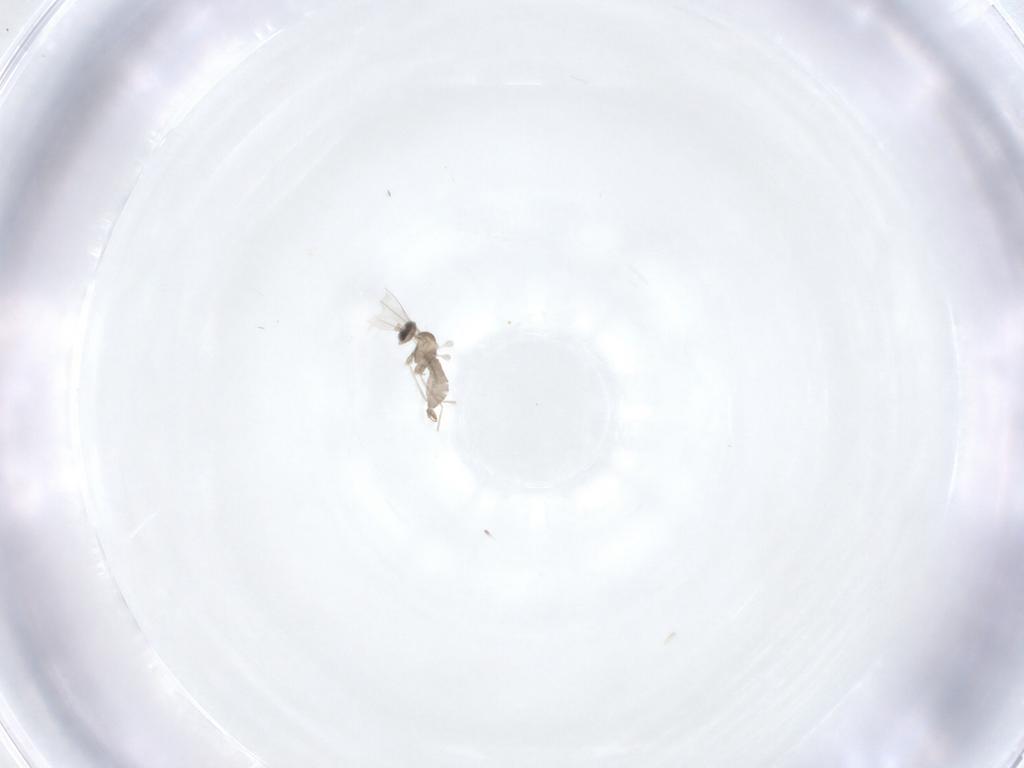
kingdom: Animalia
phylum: Arthropoda
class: Insecta
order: Diptera
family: Cecidomyiidae
